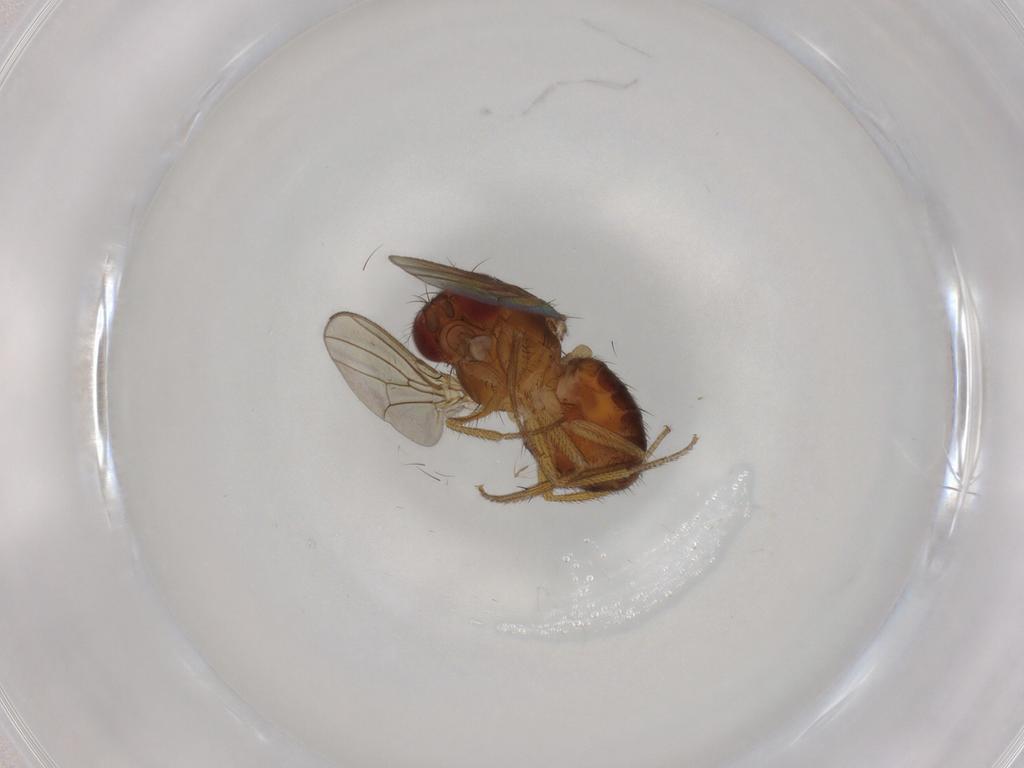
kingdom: Animalia
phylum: Arthropoda
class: Insecta
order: Diptera
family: Drosophilidae
